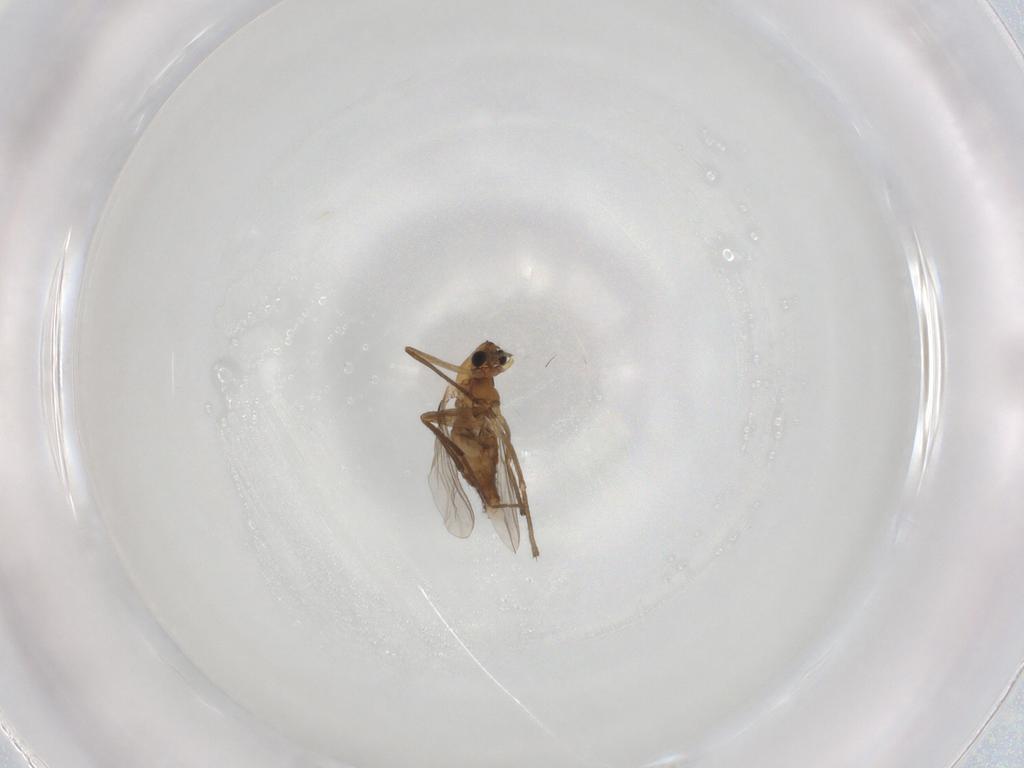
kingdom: Animalia
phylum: Arthropoda
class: Insecta
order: Diptera
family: Chironomidae
